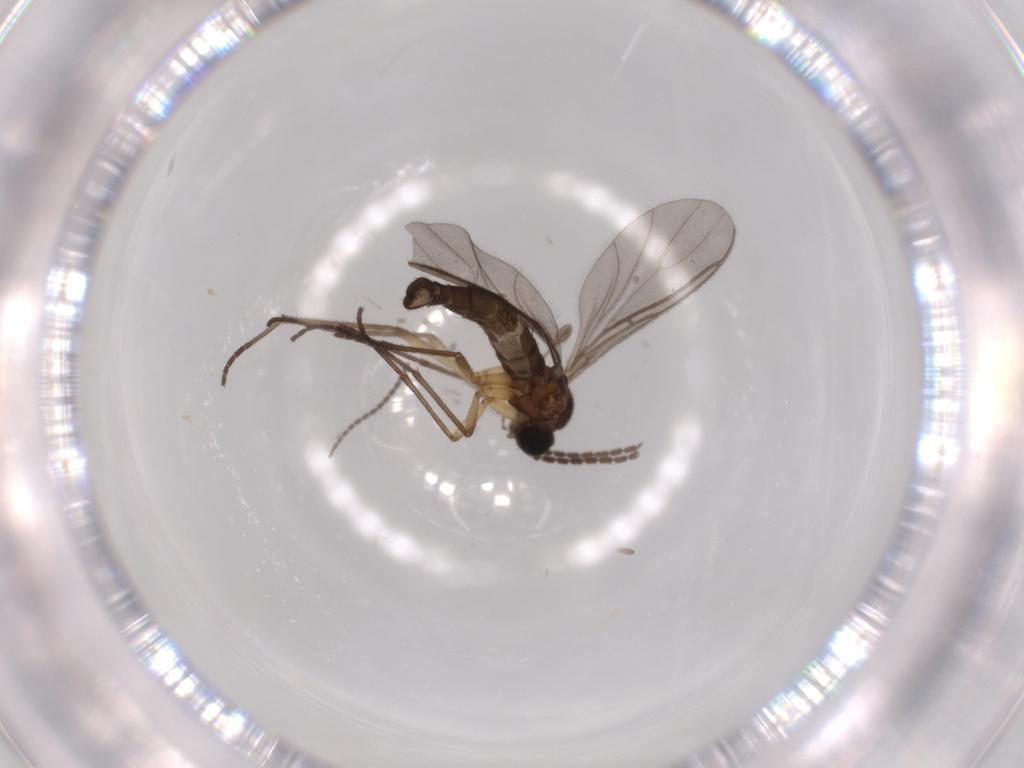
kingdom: Animalia
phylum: Arthropoda
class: Insecta
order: Diptera
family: Sciaridae
